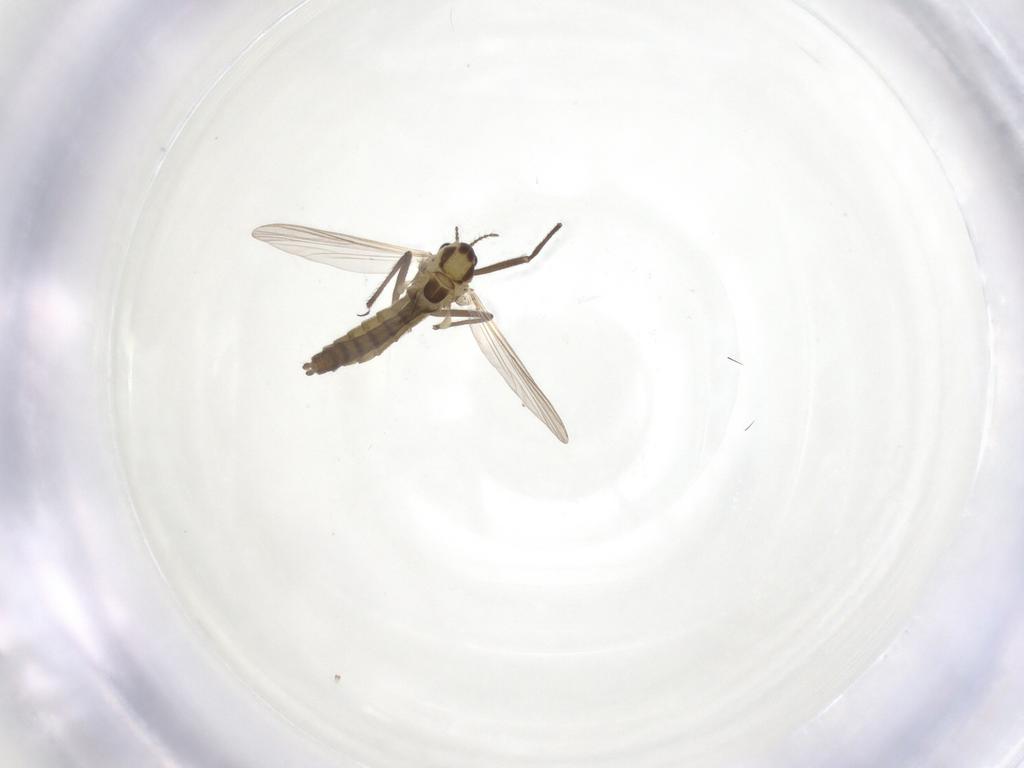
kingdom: Animalia
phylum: Arthropoda
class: Insecta
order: Diptera
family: Chironomidae
